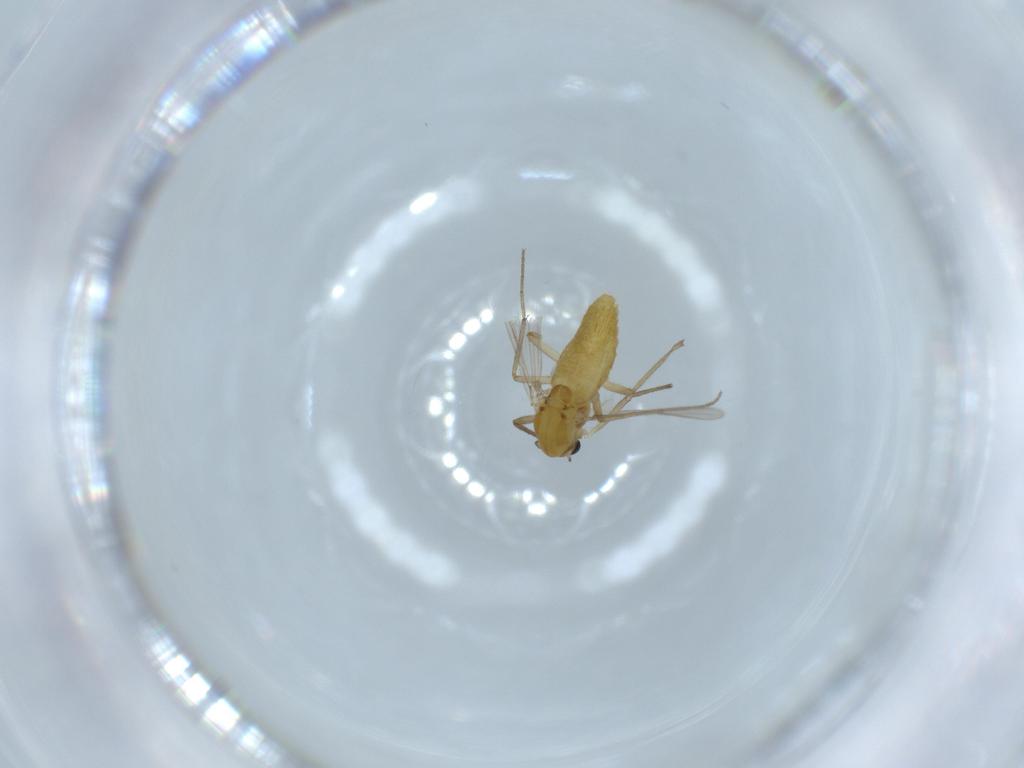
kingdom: Animalia
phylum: Arthropoda
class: Insecta
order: Diptera
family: Chironomidae
